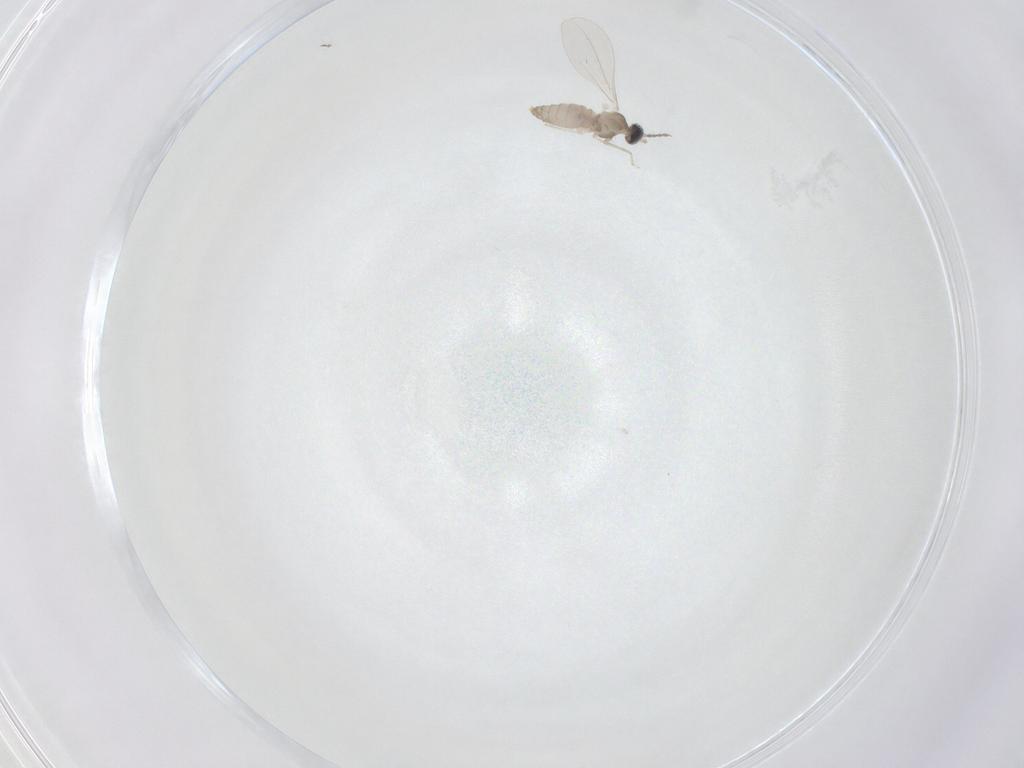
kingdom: Animalia
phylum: Arthropoda
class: Insecta
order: Diptera
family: Cecidomyiidae
